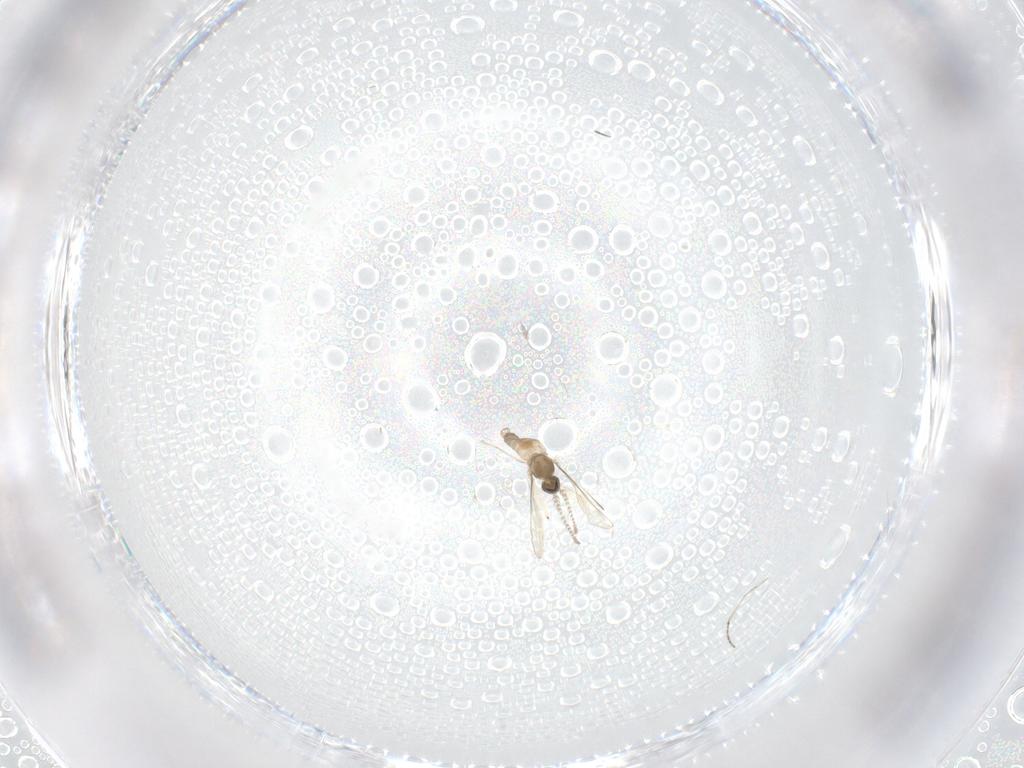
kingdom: Animalia
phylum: Arthropoda
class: Insecta
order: Diptera
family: Cecidomyiidae
